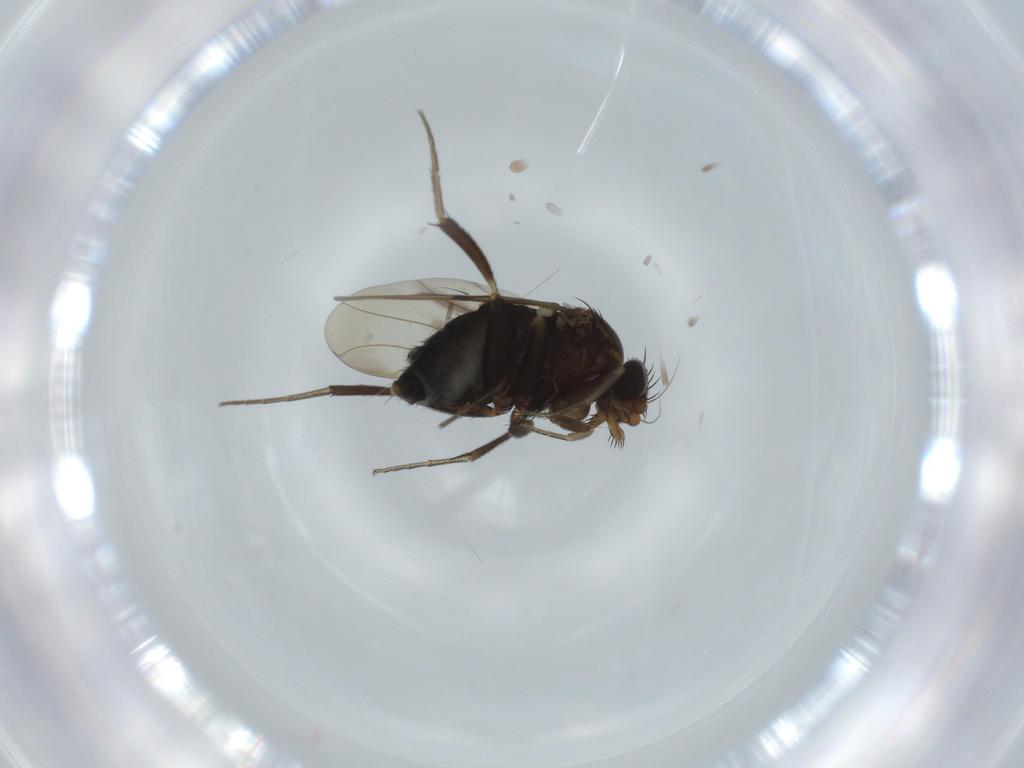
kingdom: Animalia
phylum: Arthropoda
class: Insecta
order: Diptera
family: Phoridae
